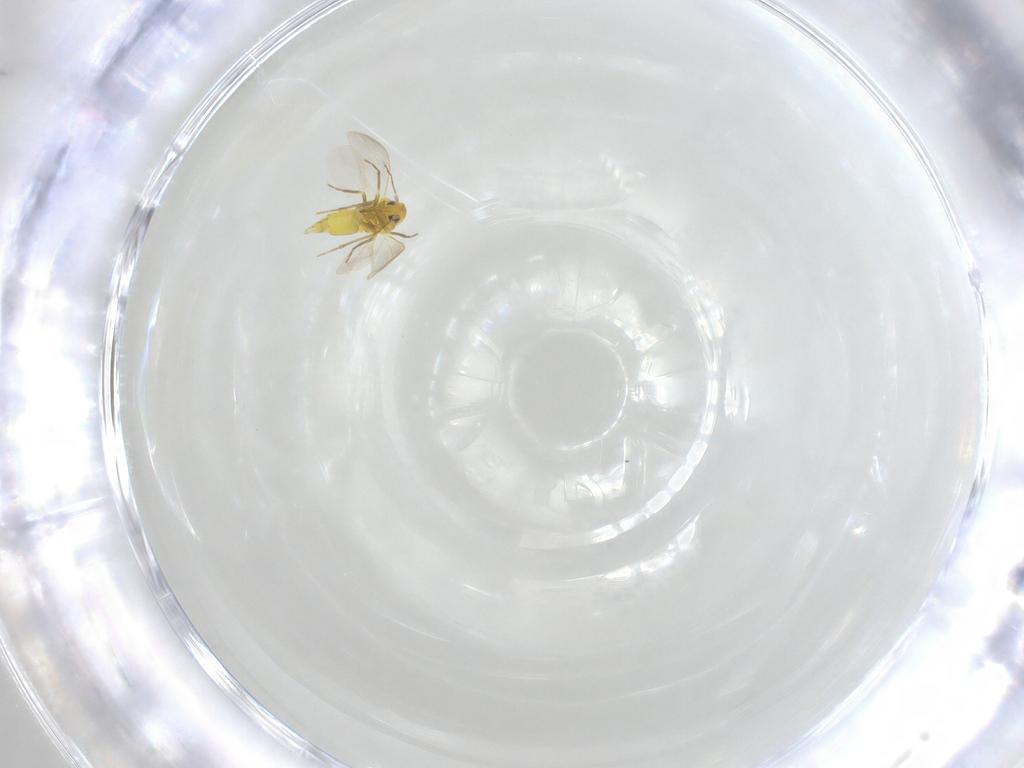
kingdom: Animalia
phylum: Arthropoda
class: Insecta
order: Hemiptera
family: Aleyrodidae
